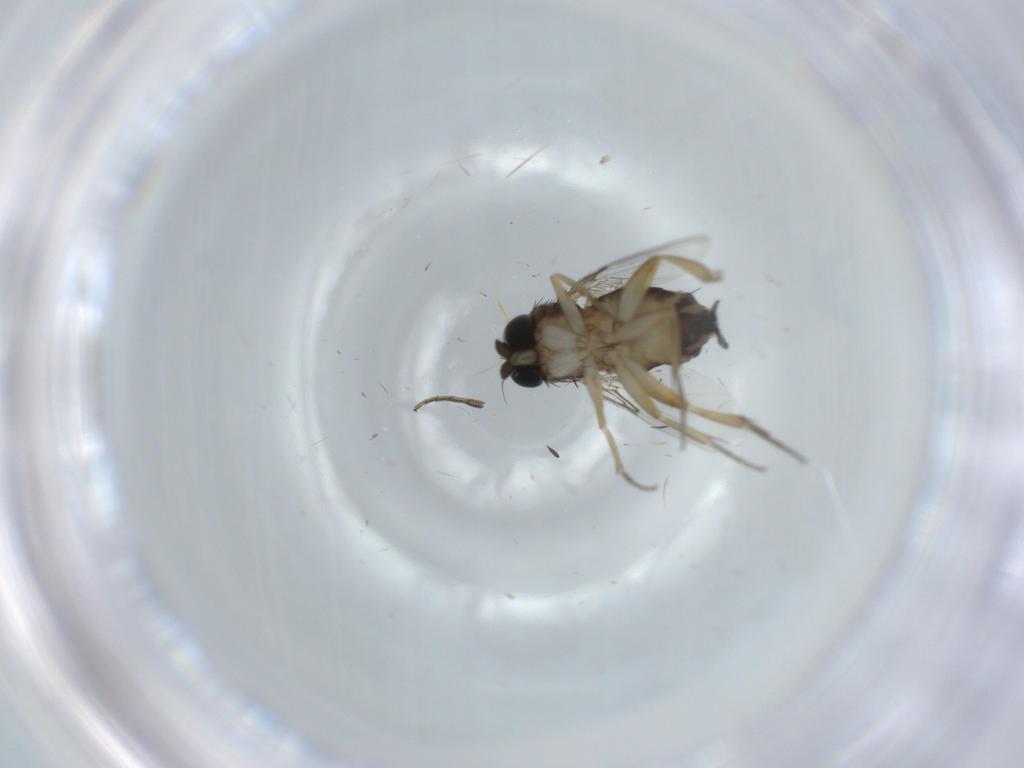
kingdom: Animalia
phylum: Arthropoda
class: Insecta
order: Diptera
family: Phoridae
